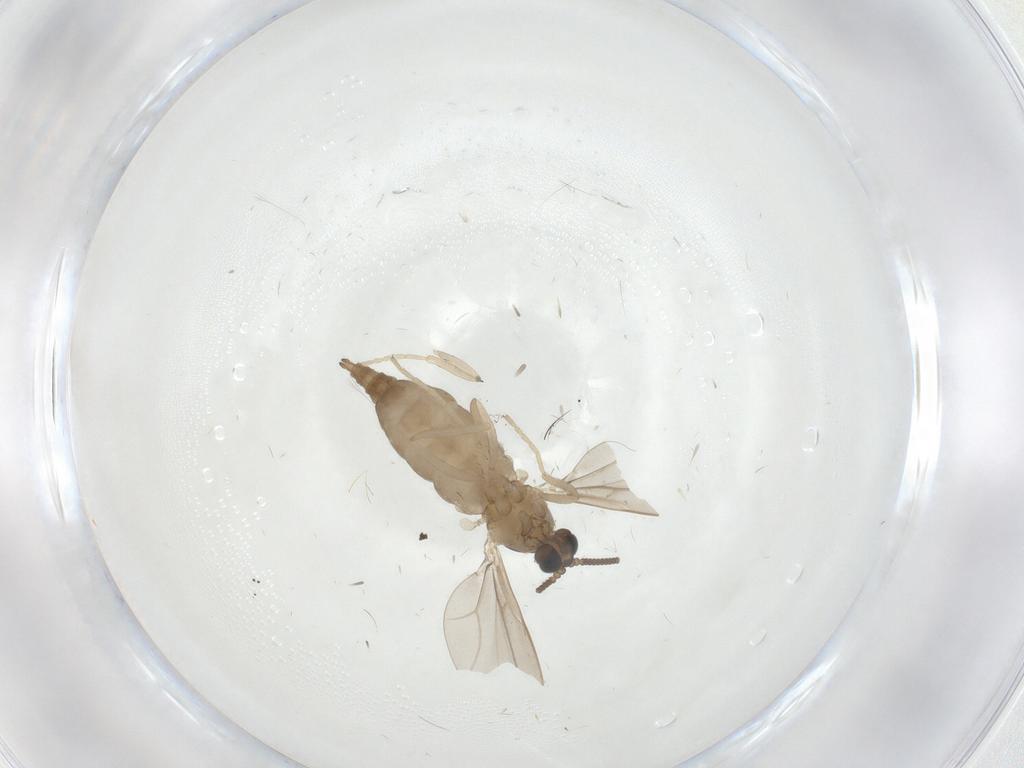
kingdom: Animalia
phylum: Arthropoda
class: Insecta
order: Diptera
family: Cecidomyiidae
